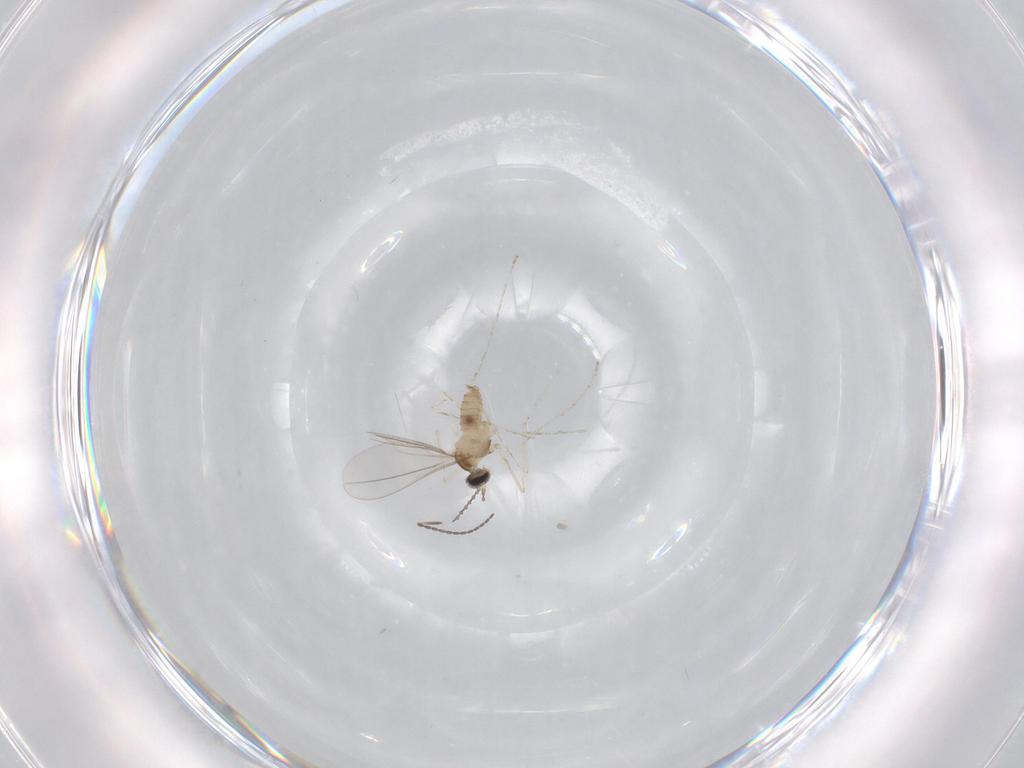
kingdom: Animalia
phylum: Arthropoda
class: Insecta
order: Diptera
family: Cecidomyiidae
